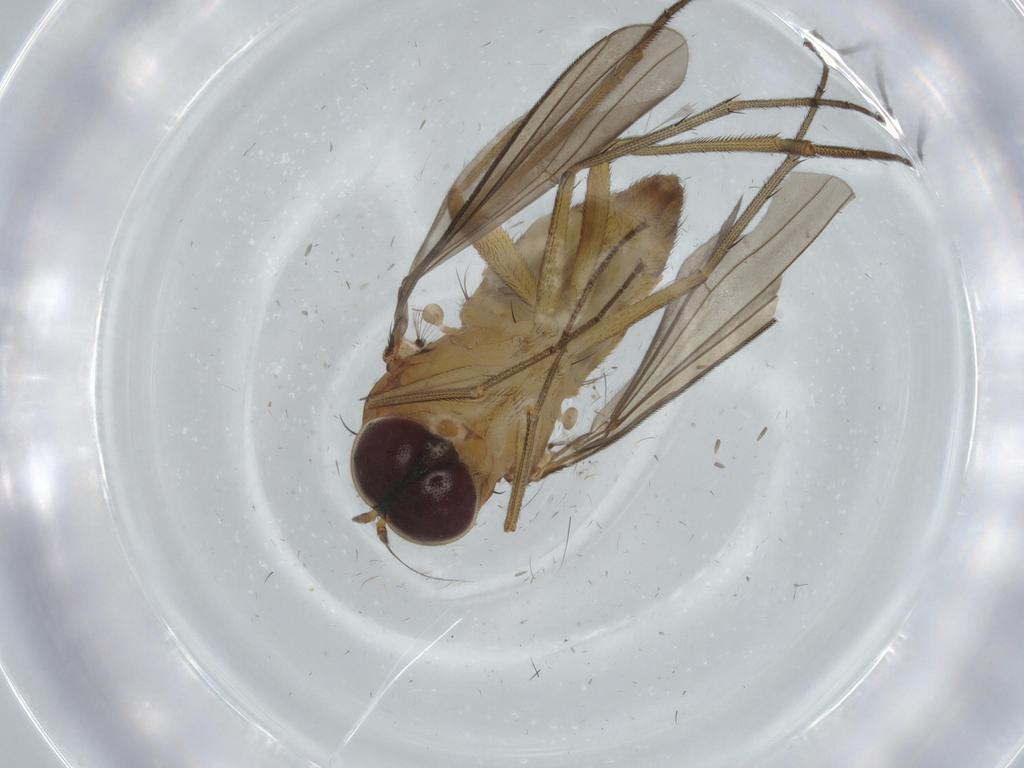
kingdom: Animalia
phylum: Arthropoda
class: Insecta
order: Diptera
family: Dolichopodidae
